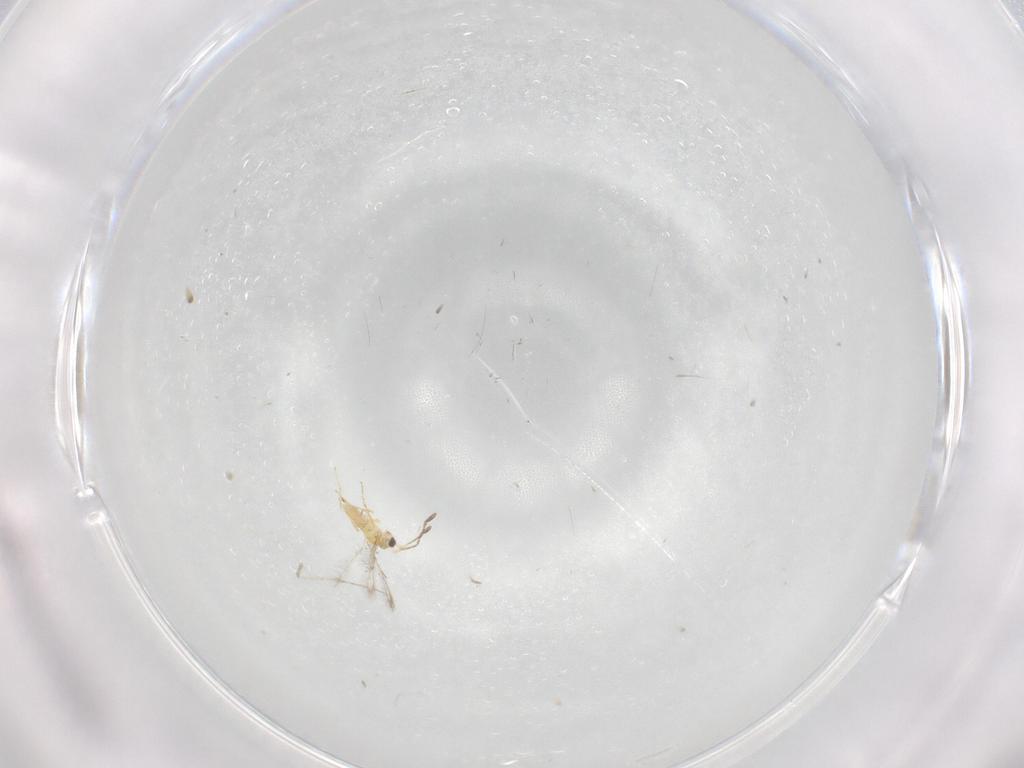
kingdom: Animalia
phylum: Arthropoda
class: Insecta
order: Hymenoptera
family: Mymaridae
